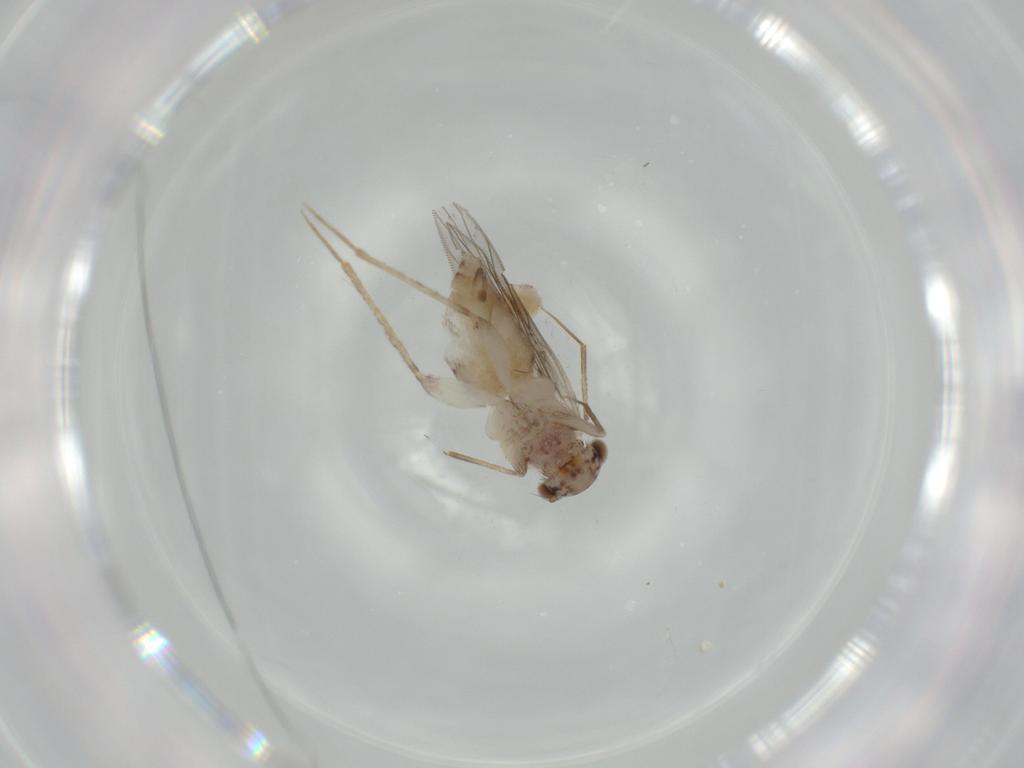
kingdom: Animalia
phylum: Arthropoda
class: Insecta
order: Psocodea
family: Lepidopsocidae
